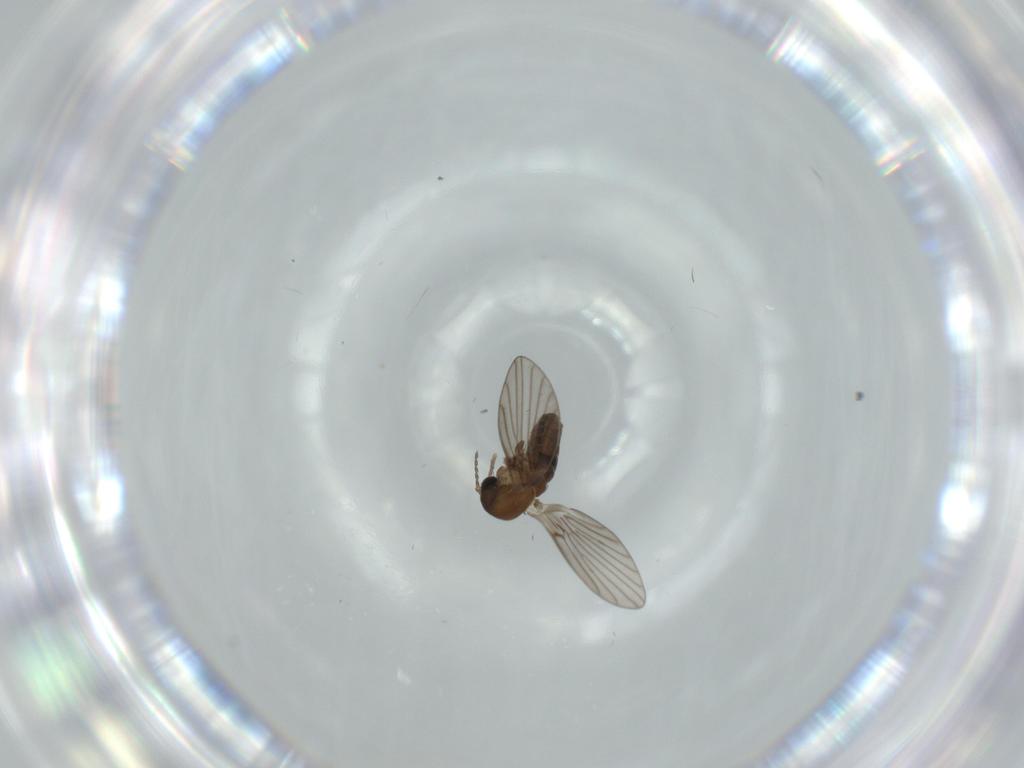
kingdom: Animalia
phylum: Arthropoda
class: Insecta
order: Diptera
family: Psychodidae
